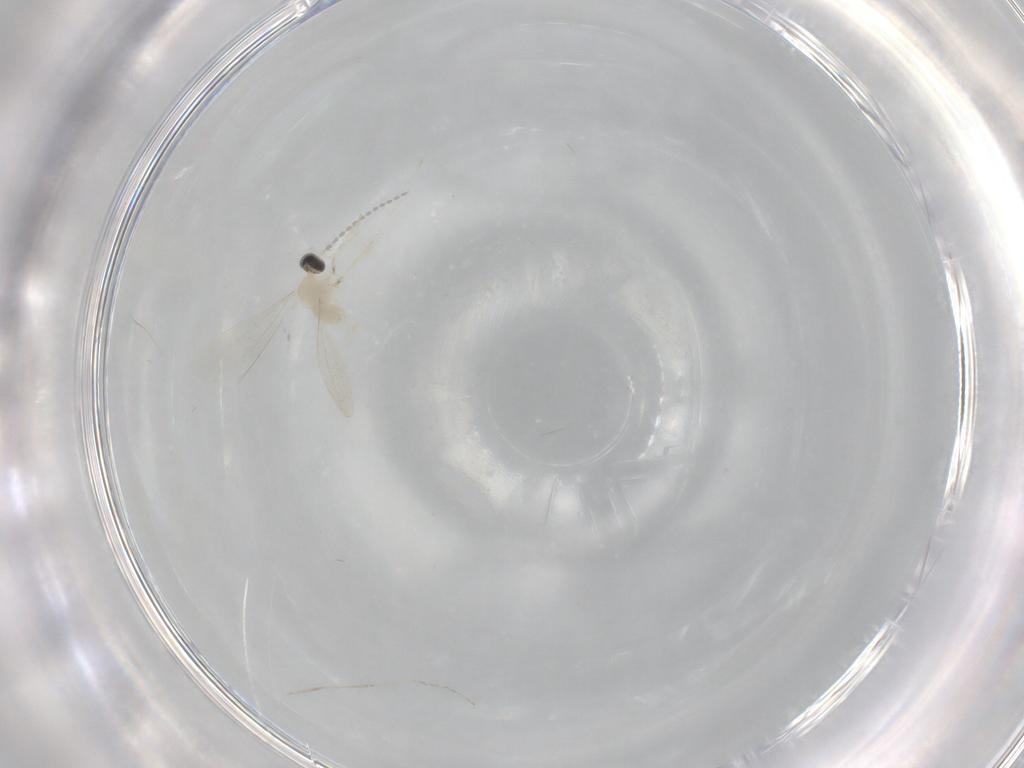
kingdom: Animalia
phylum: Arthropoda
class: Insecta
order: Diptera
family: Cecidomyiidae
